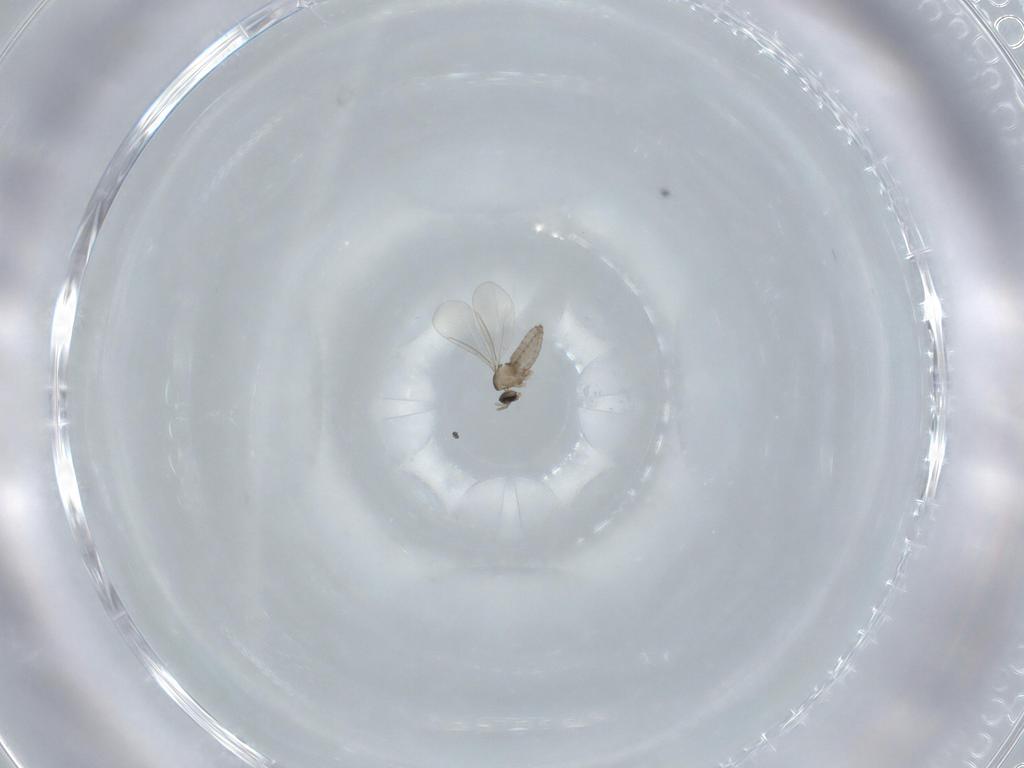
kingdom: Animalia
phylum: Arthropoda
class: Insecta
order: Diptera
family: Cecidomyiidae
